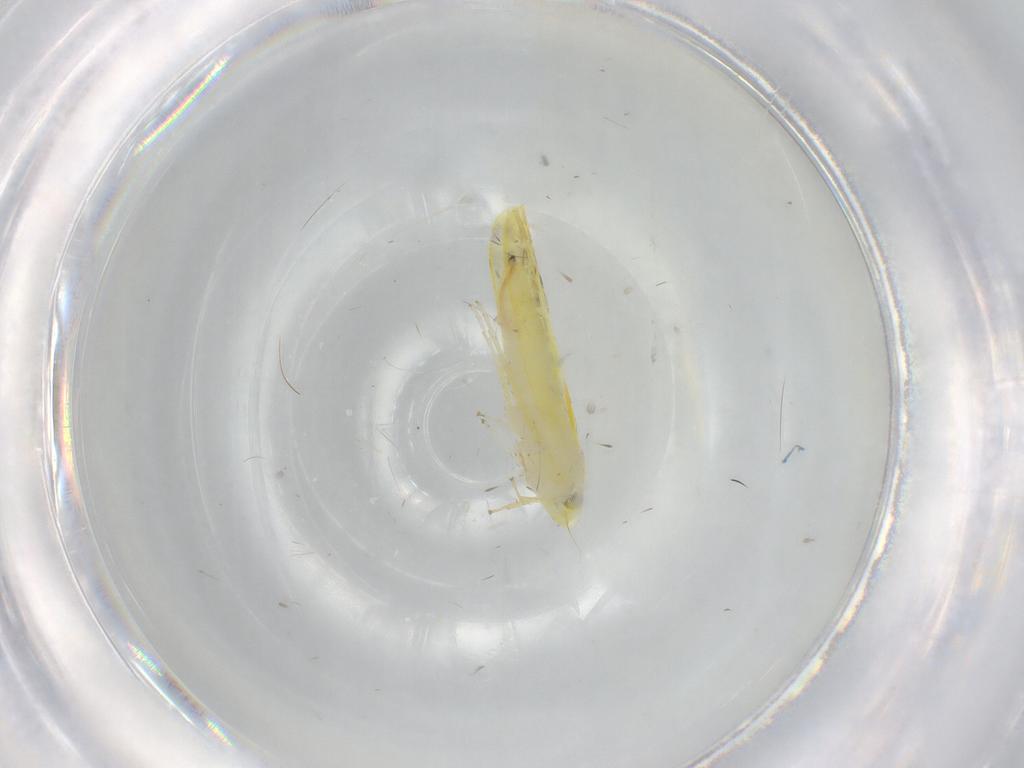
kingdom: Animalia
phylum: Arthropoda
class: Insecta
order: Hemiptera
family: Cicadellidae
